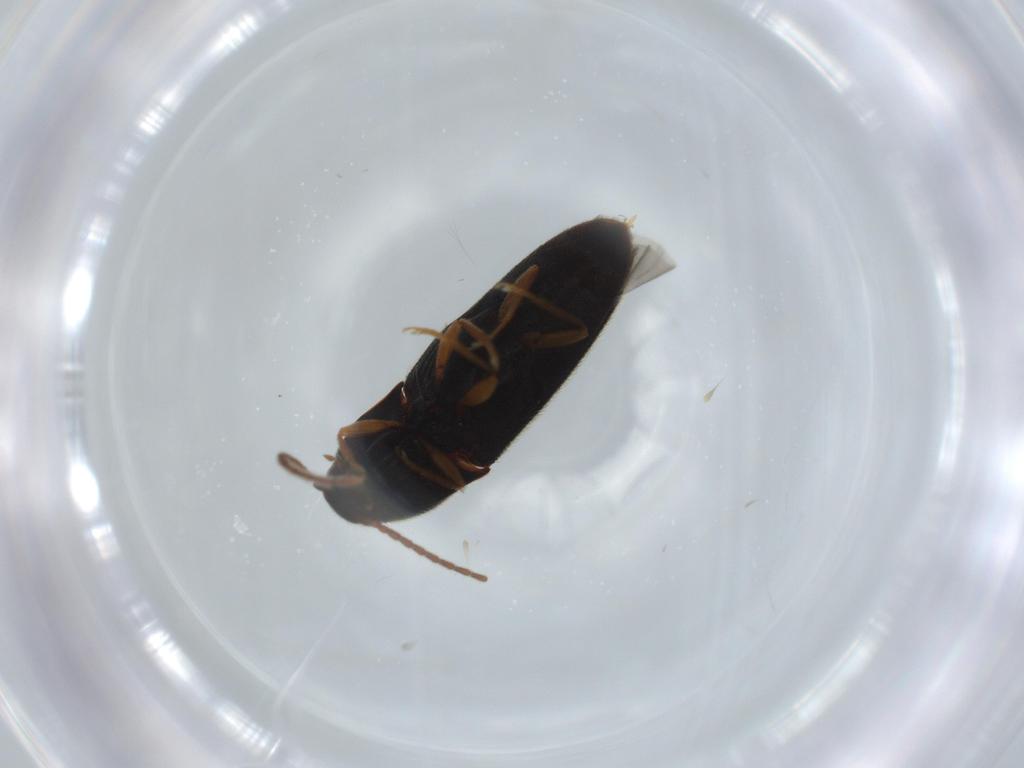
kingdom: Animalia
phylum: Arthropoda
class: Insecta
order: Coleoptera
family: Elateridae
